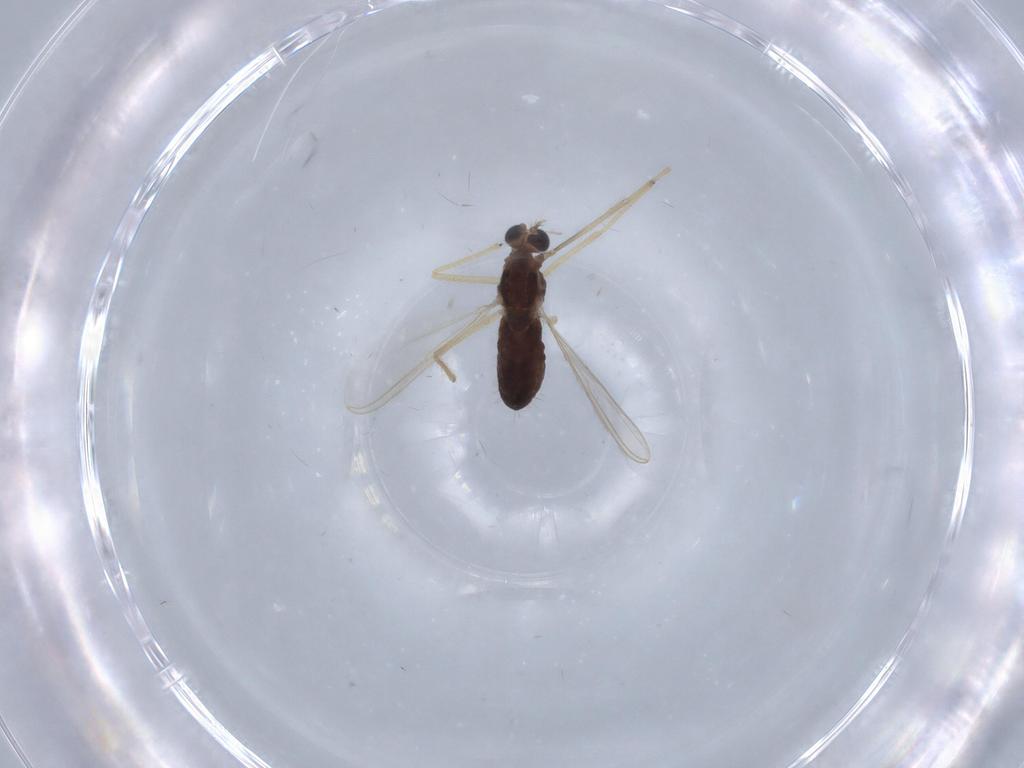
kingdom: Animalia
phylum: Arthropoda
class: Insecta
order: Diptera
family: Chironomidae
